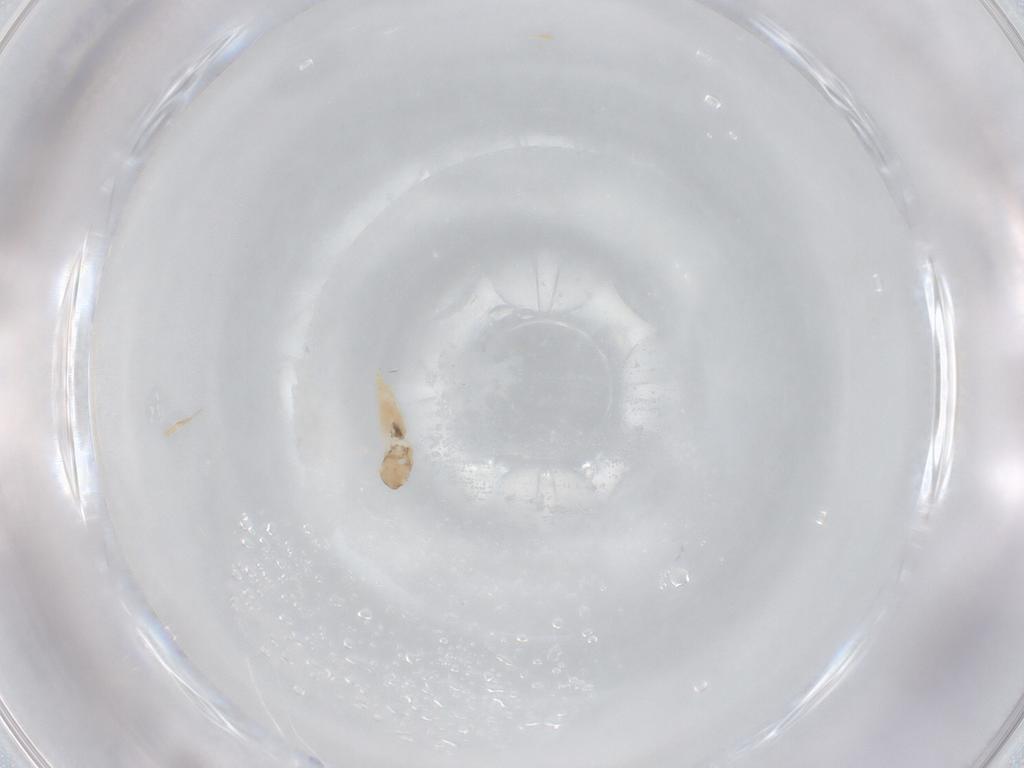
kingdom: Animalia
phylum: Arthropoda
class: Insecta
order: Diptera
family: Cecidomyiidae
